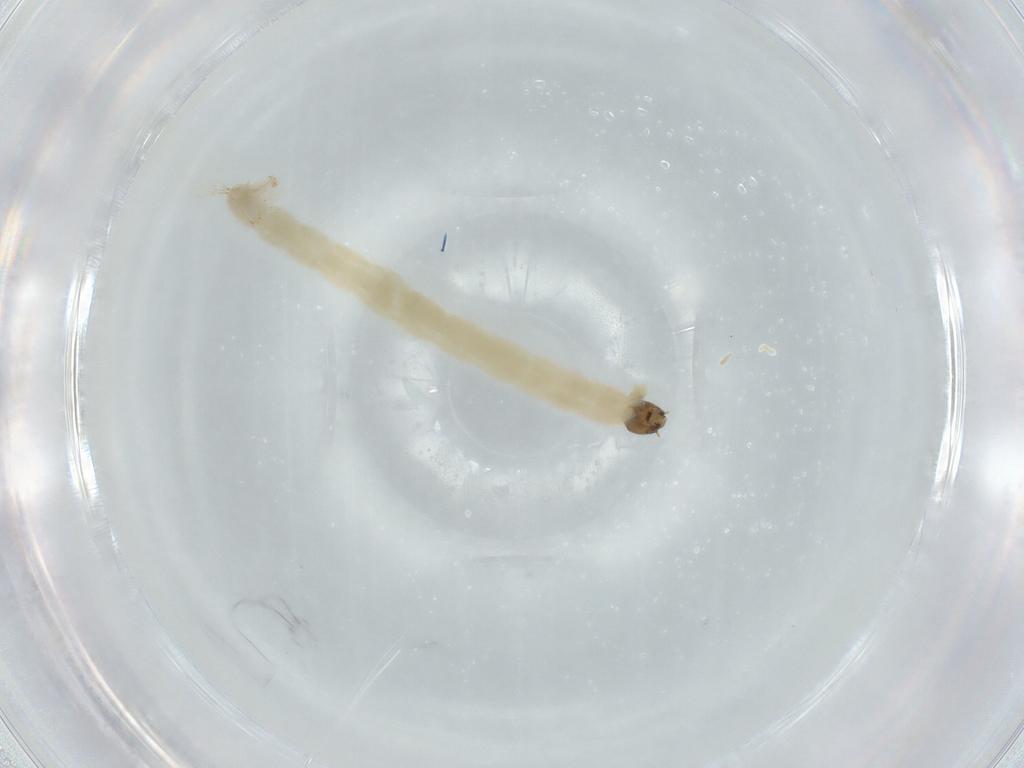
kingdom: Animalia
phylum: Arthropoda
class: Insecta
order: Diptera
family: Chironomidae
